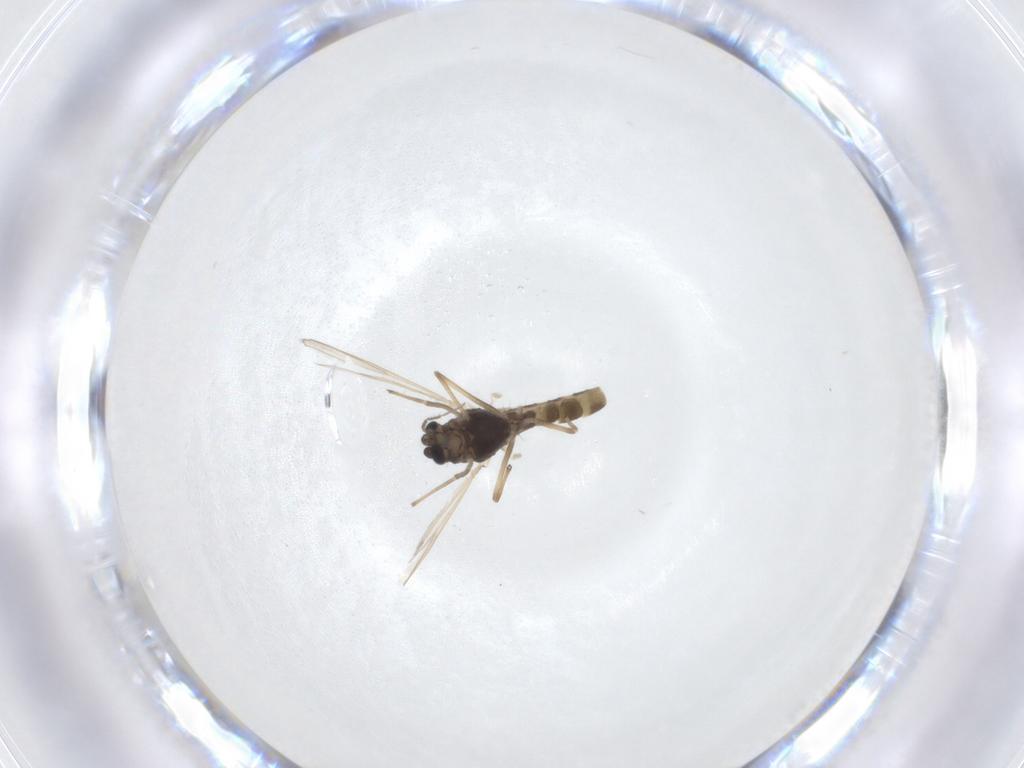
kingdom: Animalia
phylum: Arthropoda
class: Insecta
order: Diptera
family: Chironomidae
